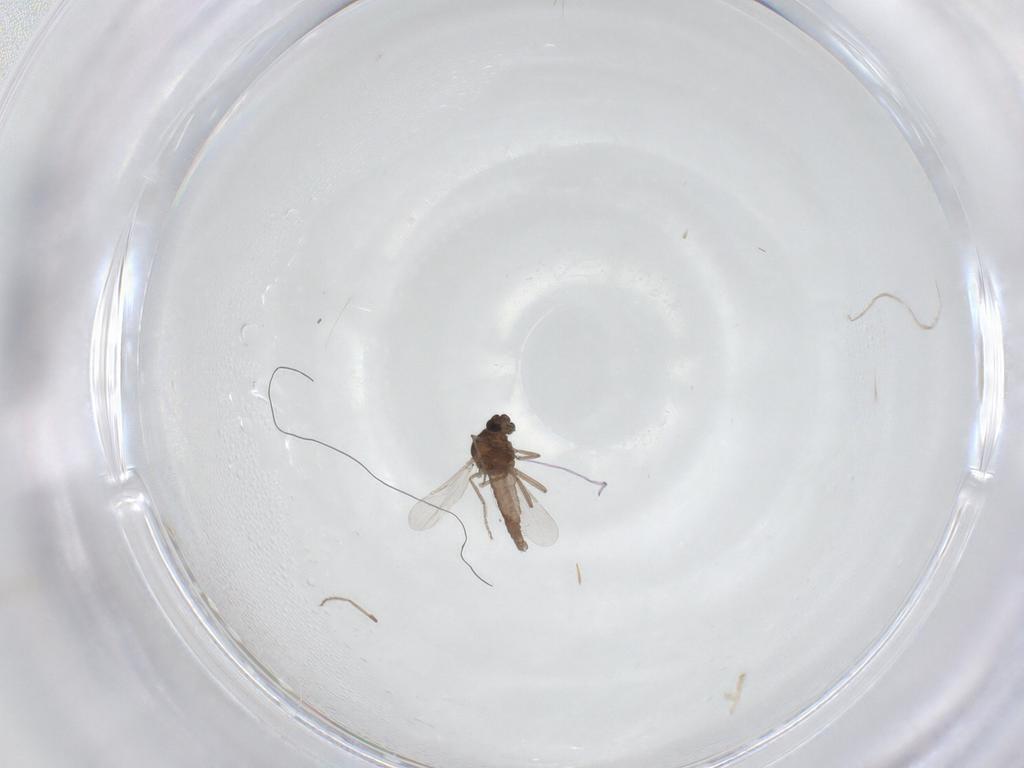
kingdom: Animalia
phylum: Arthropoda
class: Insecta
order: Diptera
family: Ceratopogonidae
